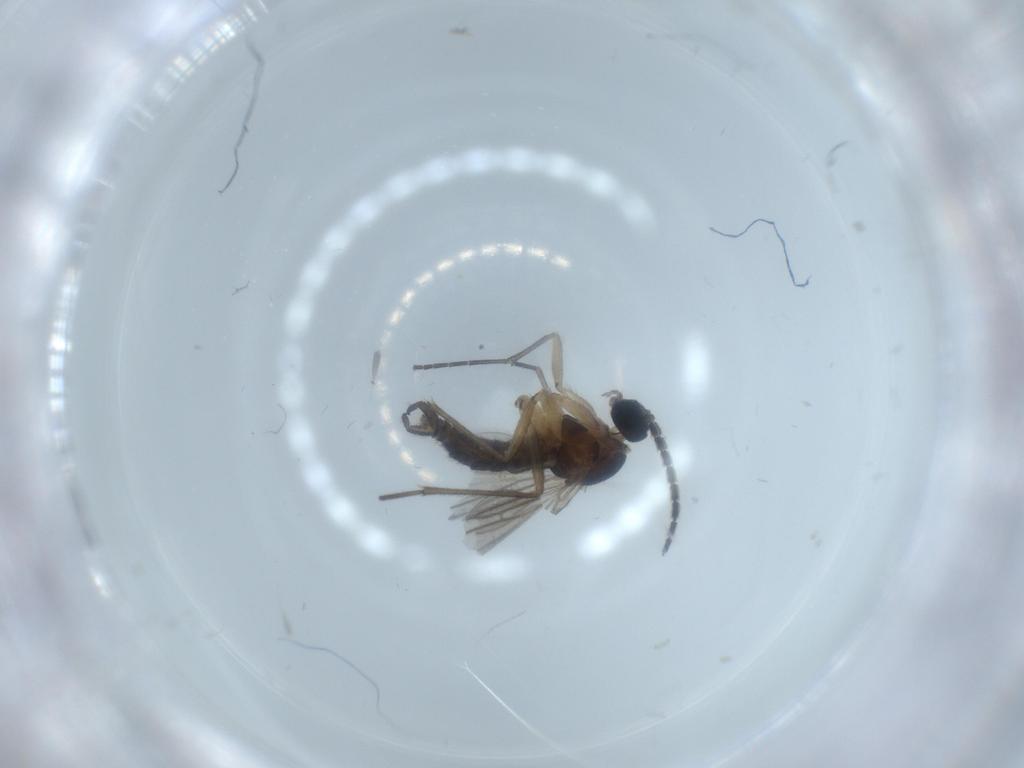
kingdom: Animalia
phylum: Arthropoda
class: Insecta
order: Diptera
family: Sciaridae
